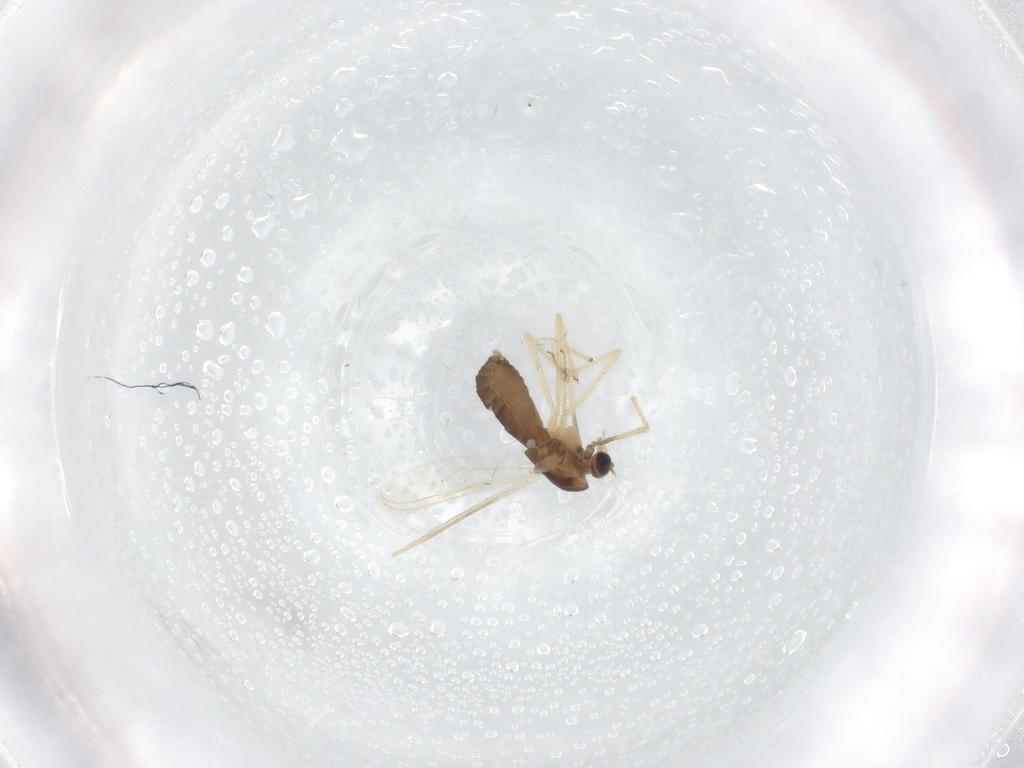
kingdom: Animalia
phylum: Arthropoda
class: Insecta
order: Diptera
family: Chironomidae
